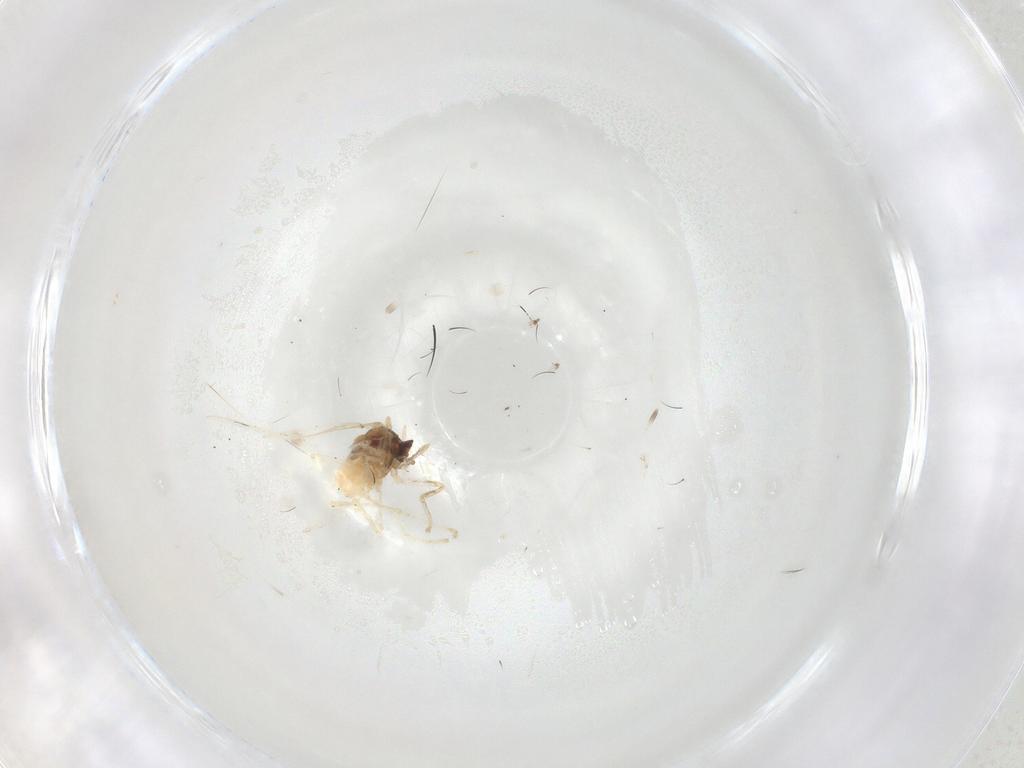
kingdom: Animalia
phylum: Arthropoda
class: Insecta
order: Diptera
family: Cecidomyiidae
